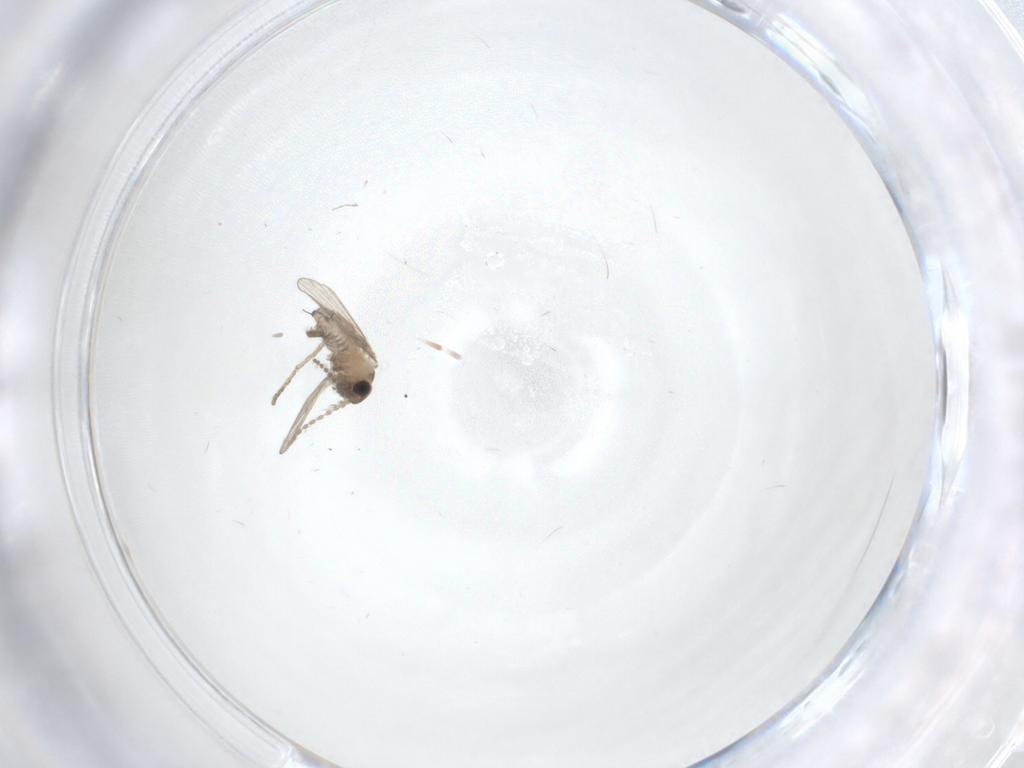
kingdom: Animalia
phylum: Arthropoda
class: Insecta
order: Diptera
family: Psychodidae
